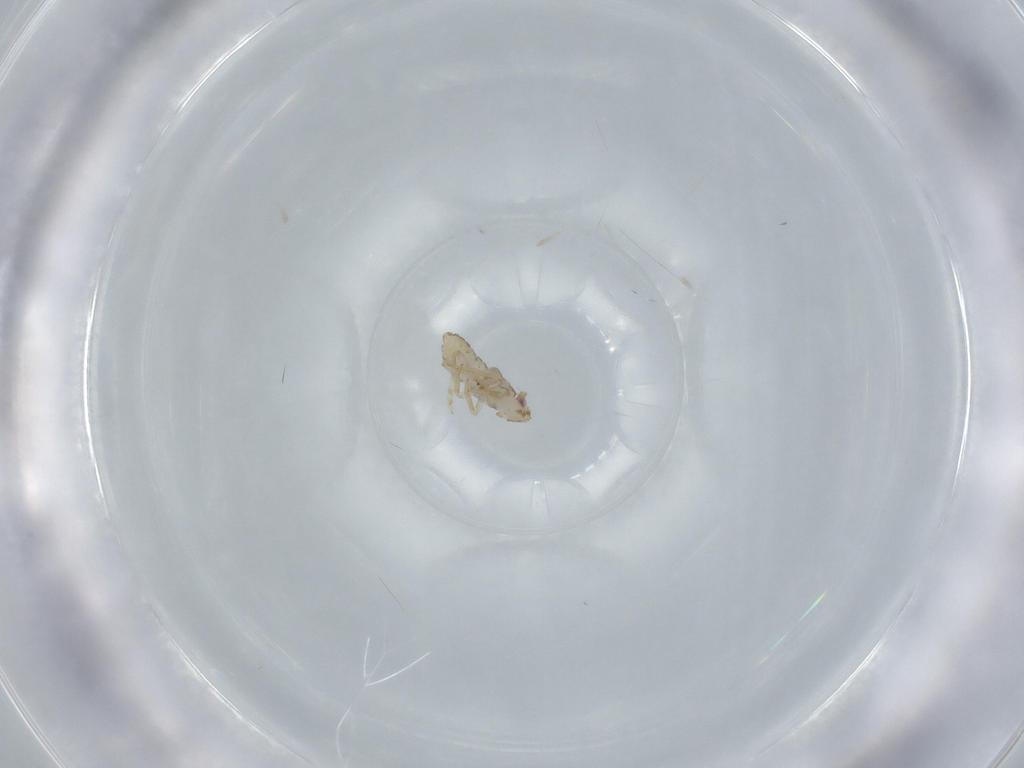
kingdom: Animalia
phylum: Arthropoda
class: Insecta
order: Hemiptera
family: Delphacidae
